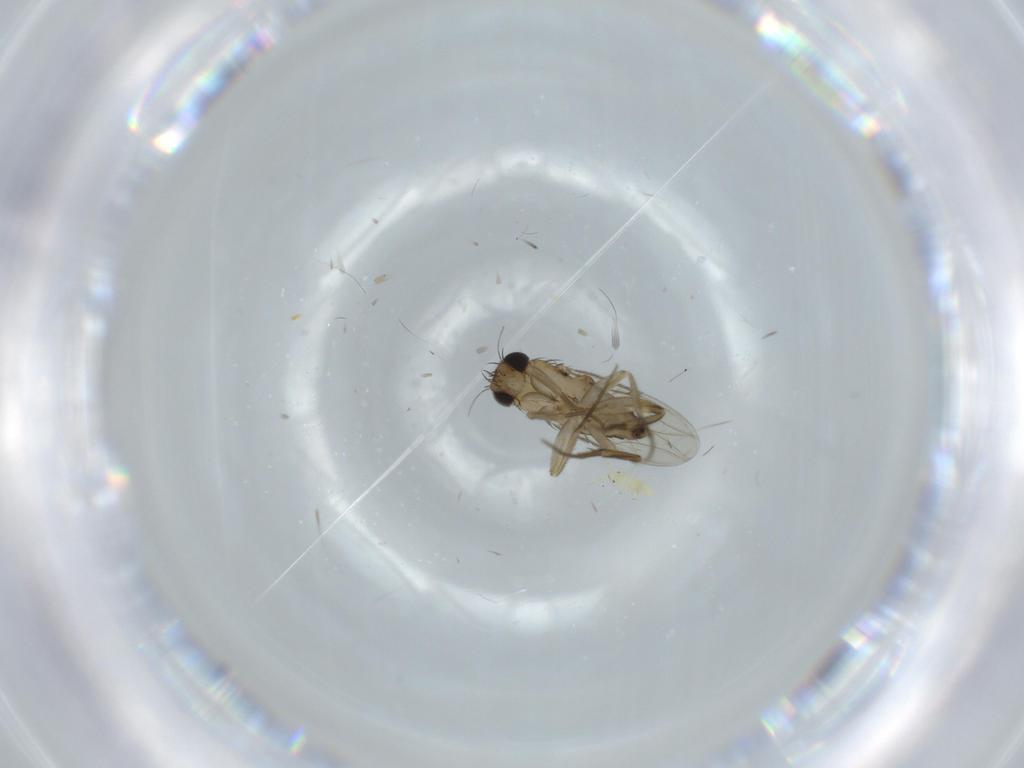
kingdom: Animalia
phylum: Arthropoda
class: Insecta
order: Diptera
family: Phoridae
